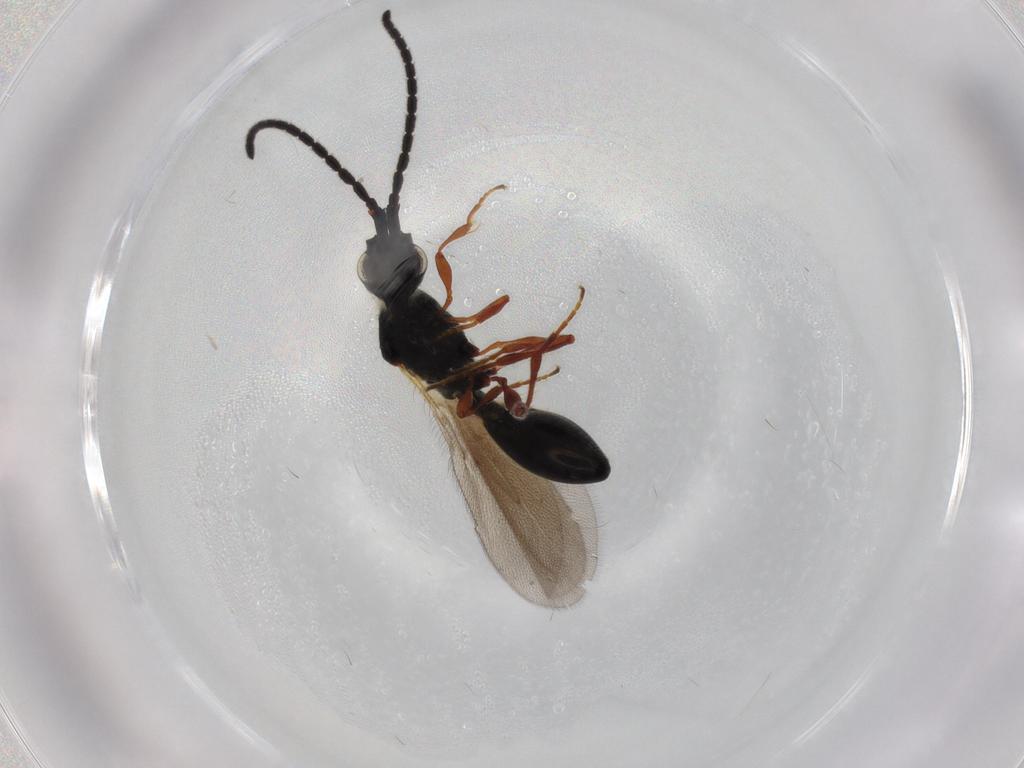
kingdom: Animalia
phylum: Arthropoda
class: Insecta
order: Hymenoptera
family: Diapriidae
